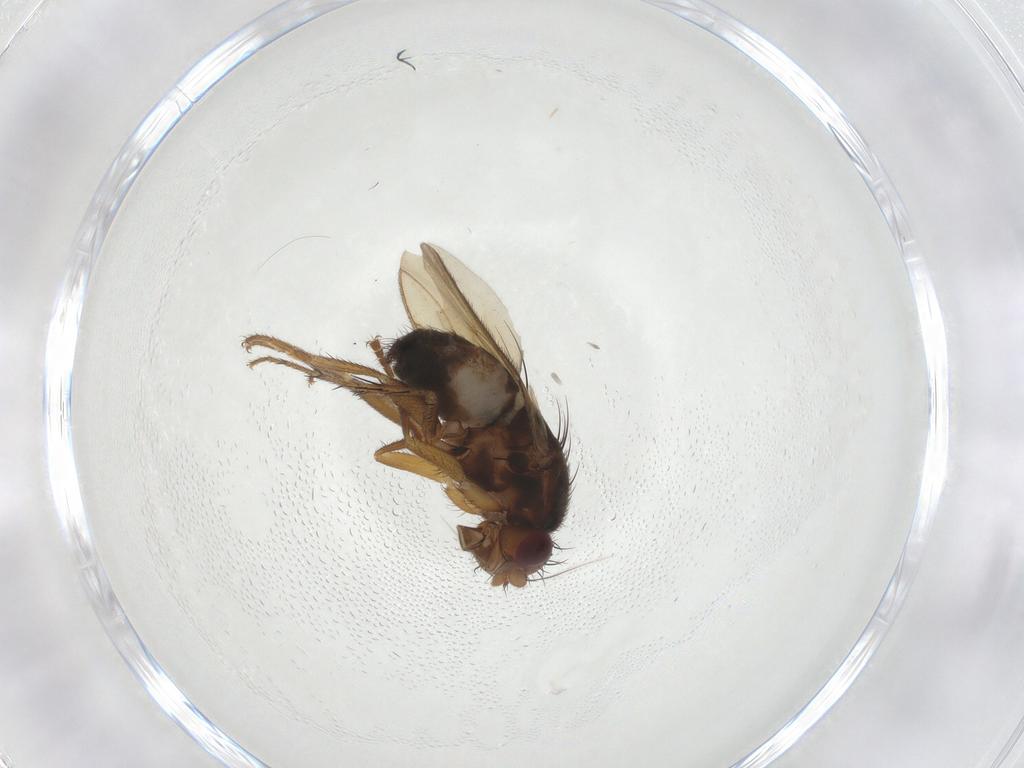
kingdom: Animalia
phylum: Arthropoda
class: Insecta
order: Diptera
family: Sphaeroceridae
